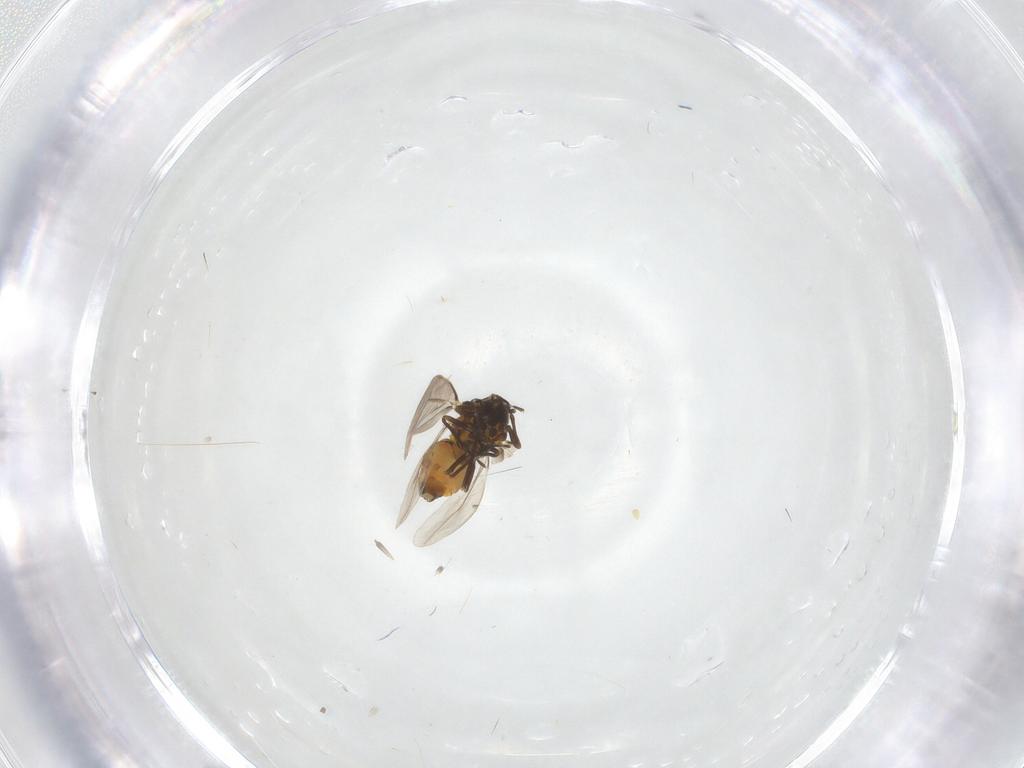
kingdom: Animalia
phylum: Arthropoda
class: Insecta
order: Hemiptera
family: Aleyrodidae
